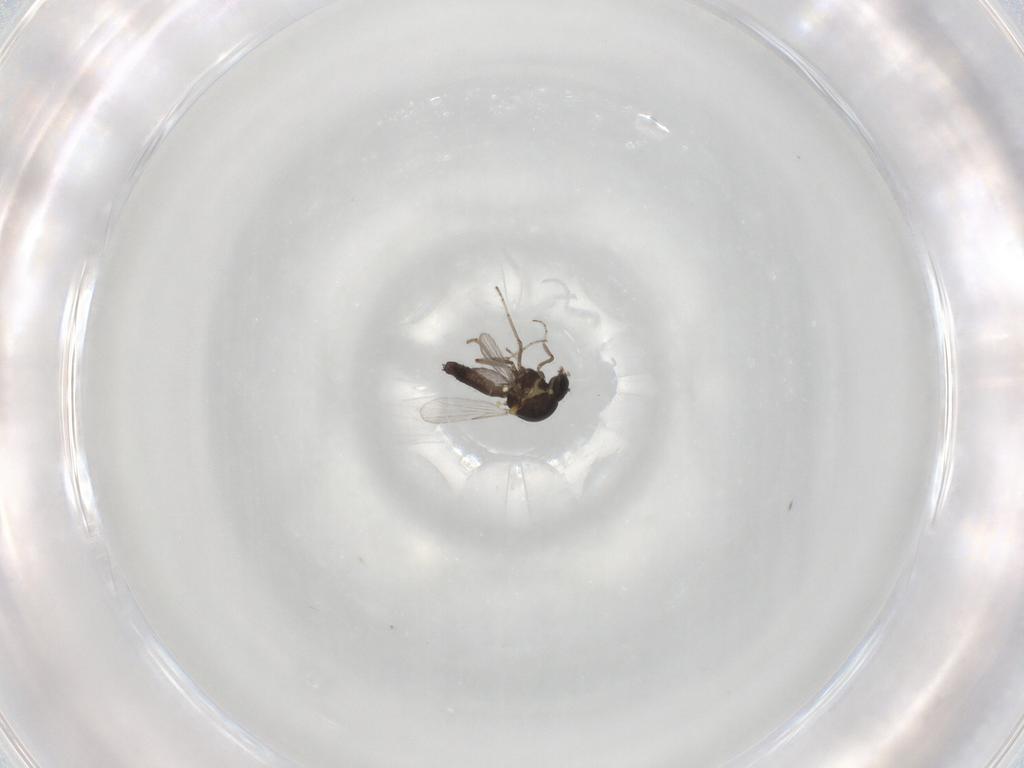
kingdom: Animalia
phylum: Arthropoda
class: Insecta
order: Diptera
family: Ceratopogonidae
